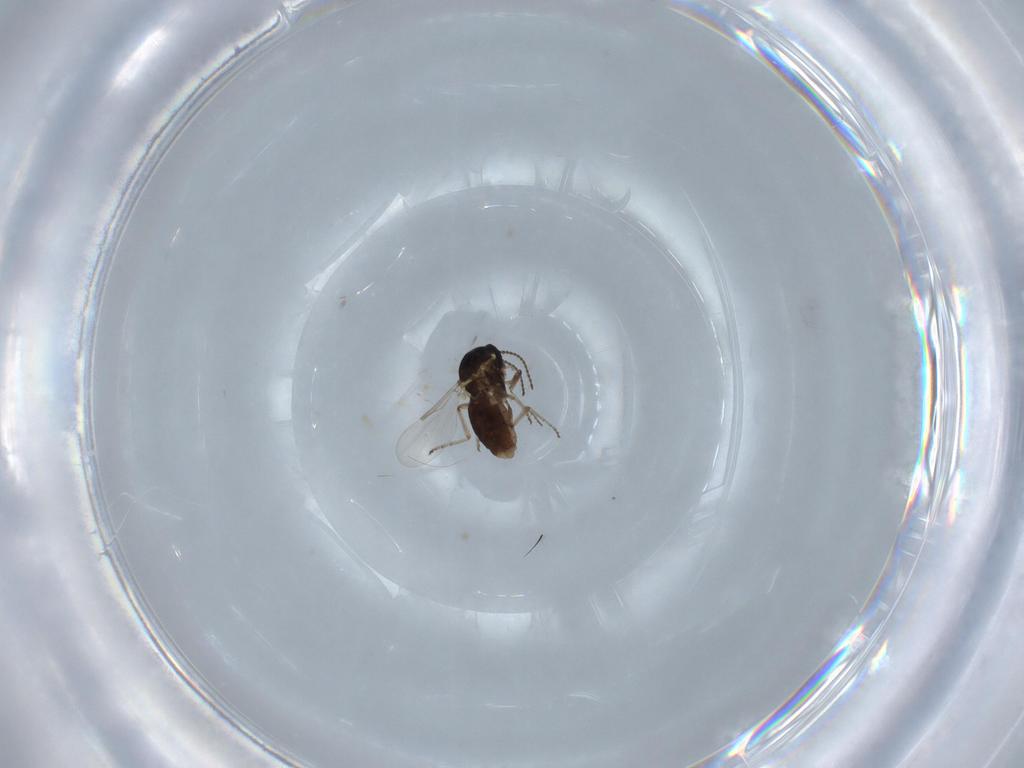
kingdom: Animalia
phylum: Arthropoda
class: Insecta
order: Diptera
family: Ceratopogonidae
